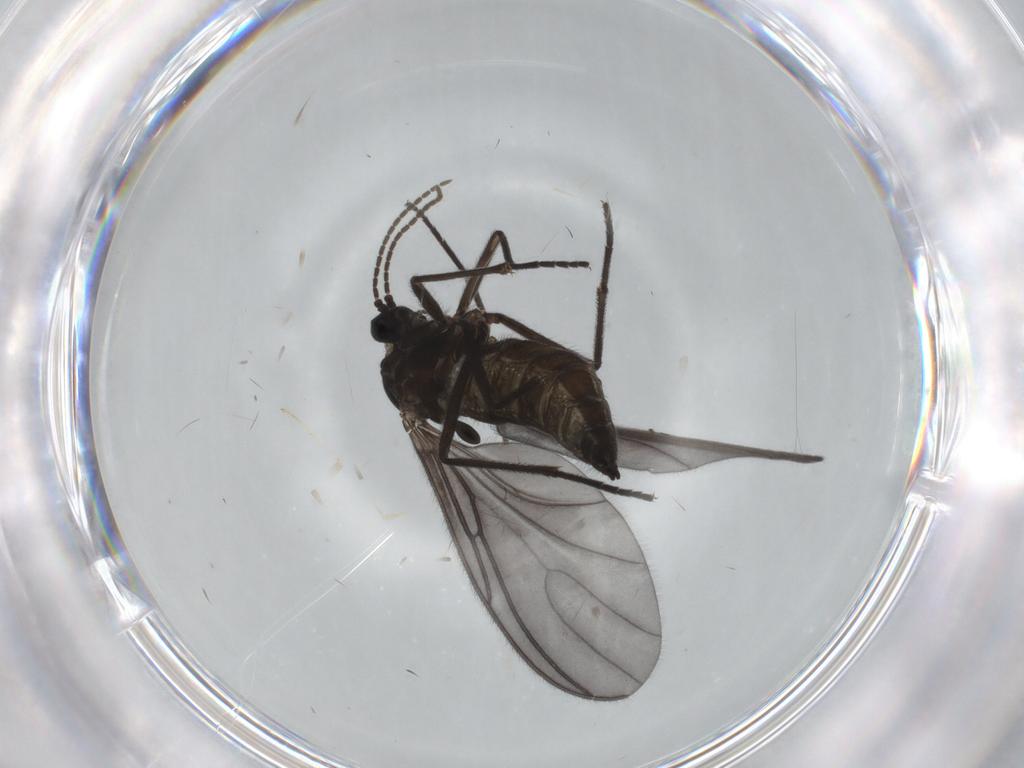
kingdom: Animalia
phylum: Arthropoda
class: Insecta
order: Diptera
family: Sciaridae
